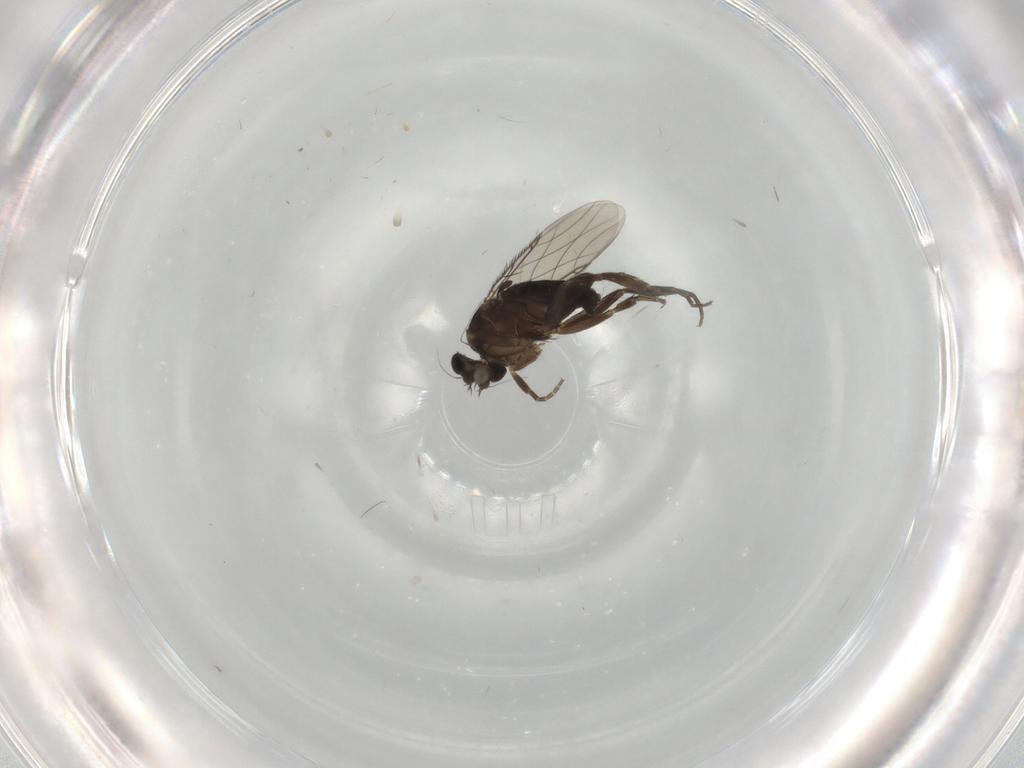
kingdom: Animalia
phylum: Arthropoda
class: Insecta
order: Diptera
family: Phoridae
